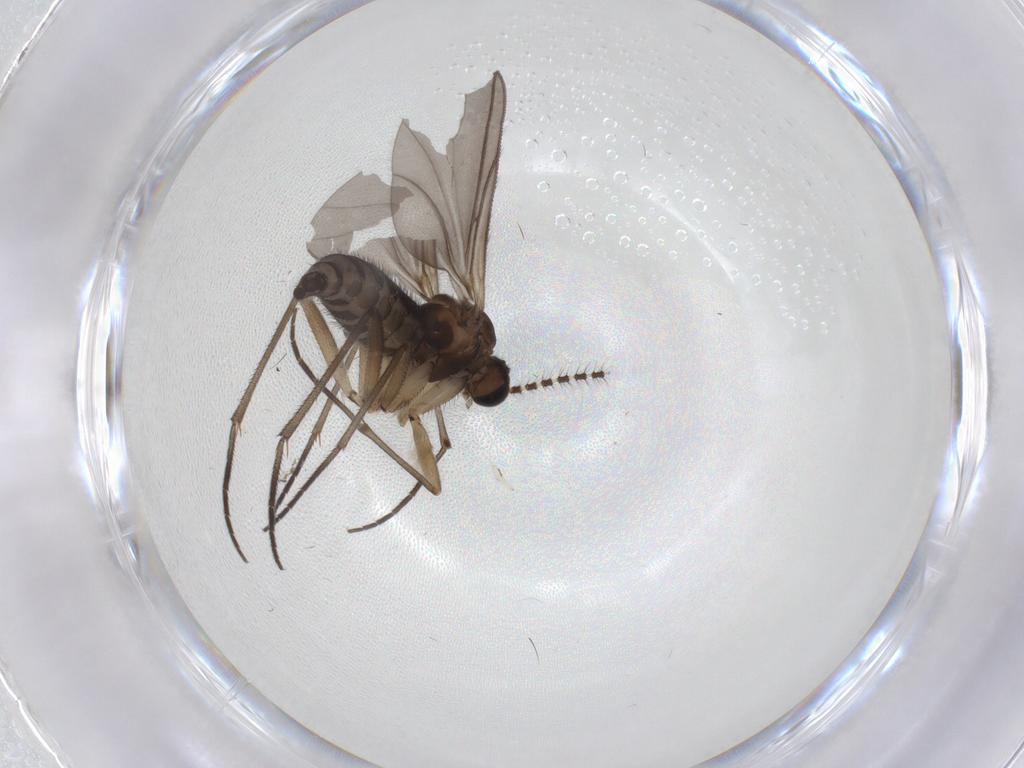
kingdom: Animalia
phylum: Arthropoda
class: Insecta
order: Diptera
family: Sciaridae
